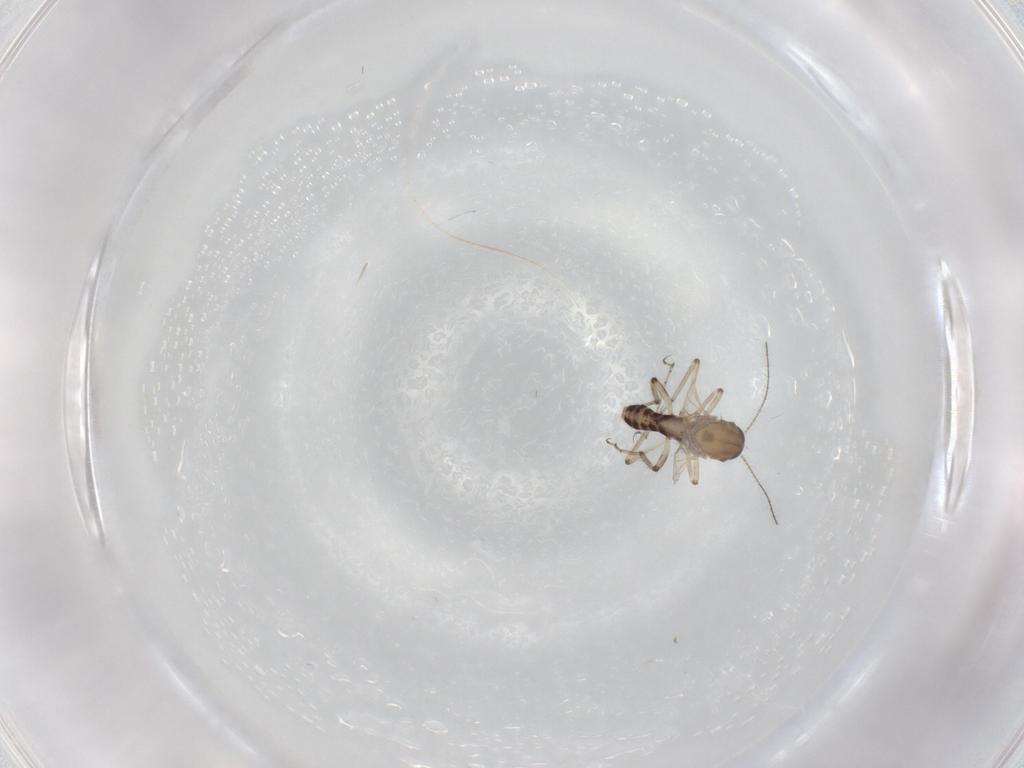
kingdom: Animalia
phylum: Arthropoda
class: Insecta
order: Diptera
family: Ceratopogonidae
